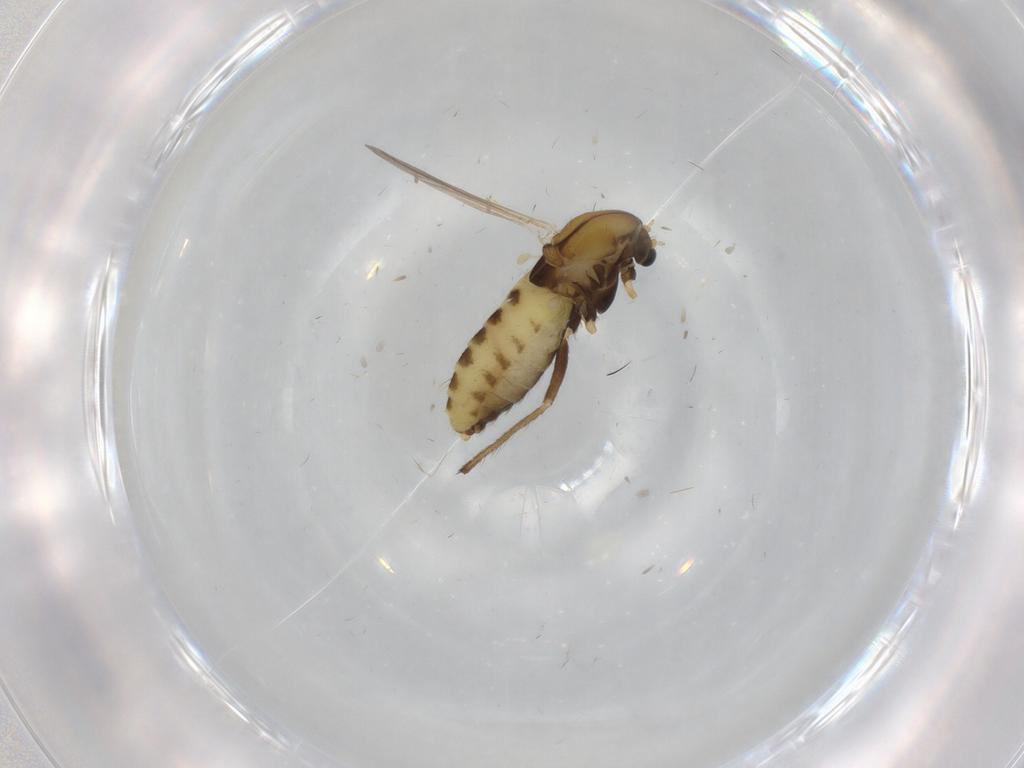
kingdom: Animalia
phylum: Arthropoda
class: Insecta
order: Diptera
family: Chironomidae
